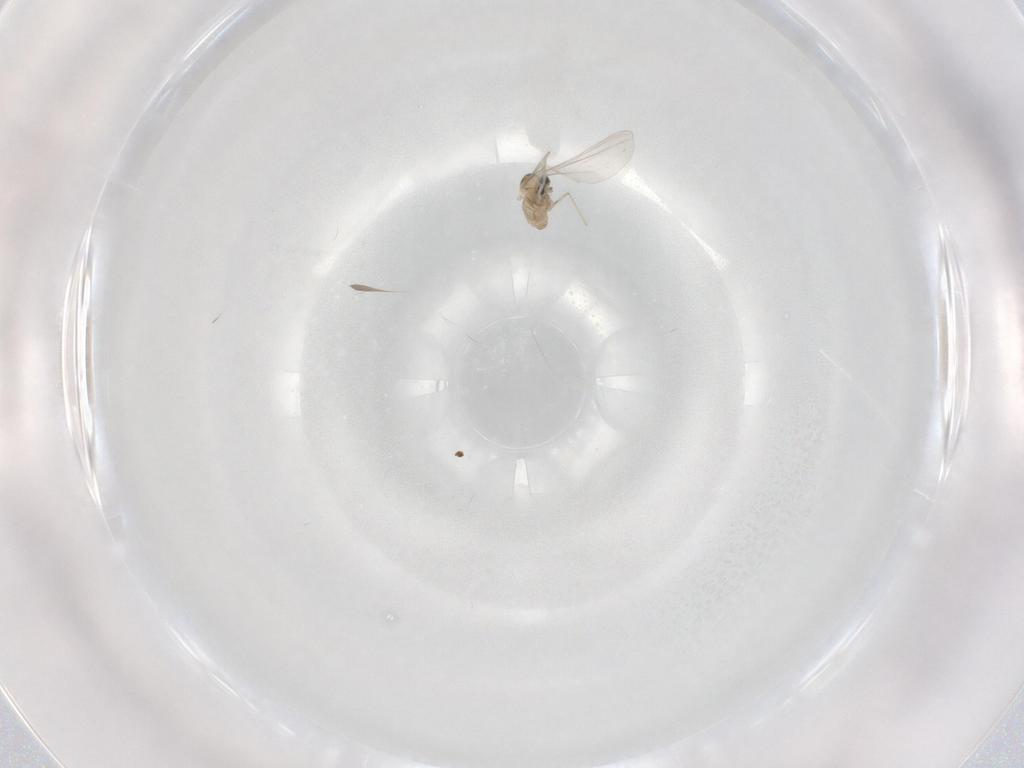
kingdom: Animalia
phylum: Arthropoda
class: Insecta
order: Diptera
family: Cecidomyiidae
